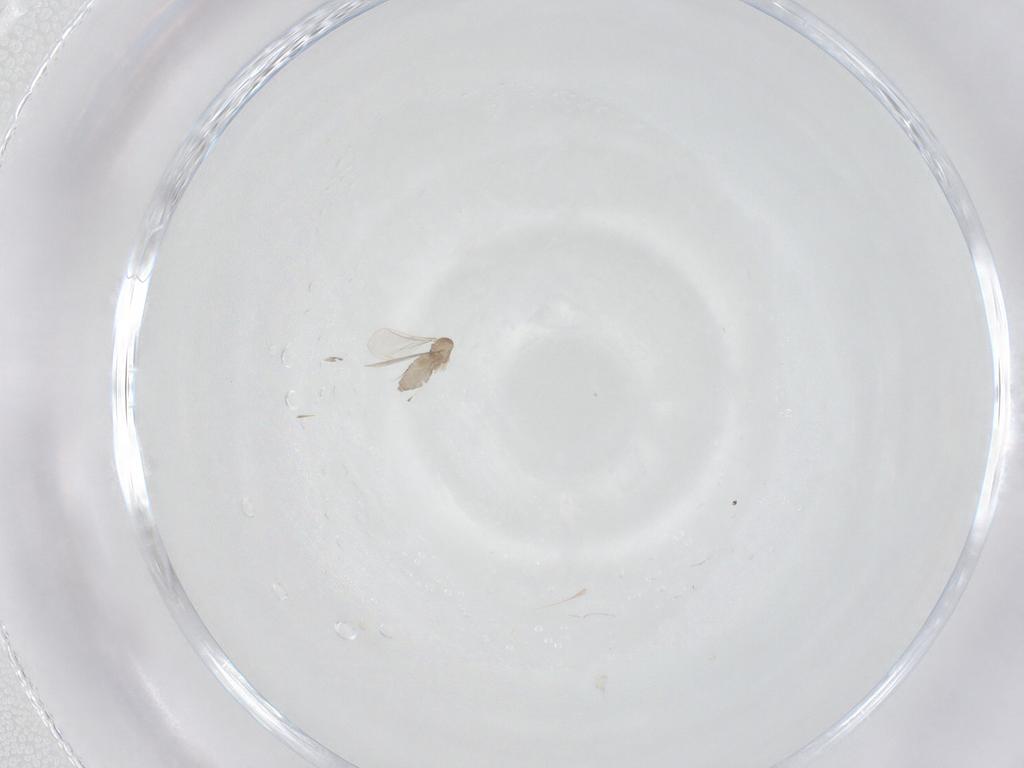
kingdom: Animalia
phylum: Arthropoda
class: Insecta
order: Diptera
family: Cecidomyiidae
